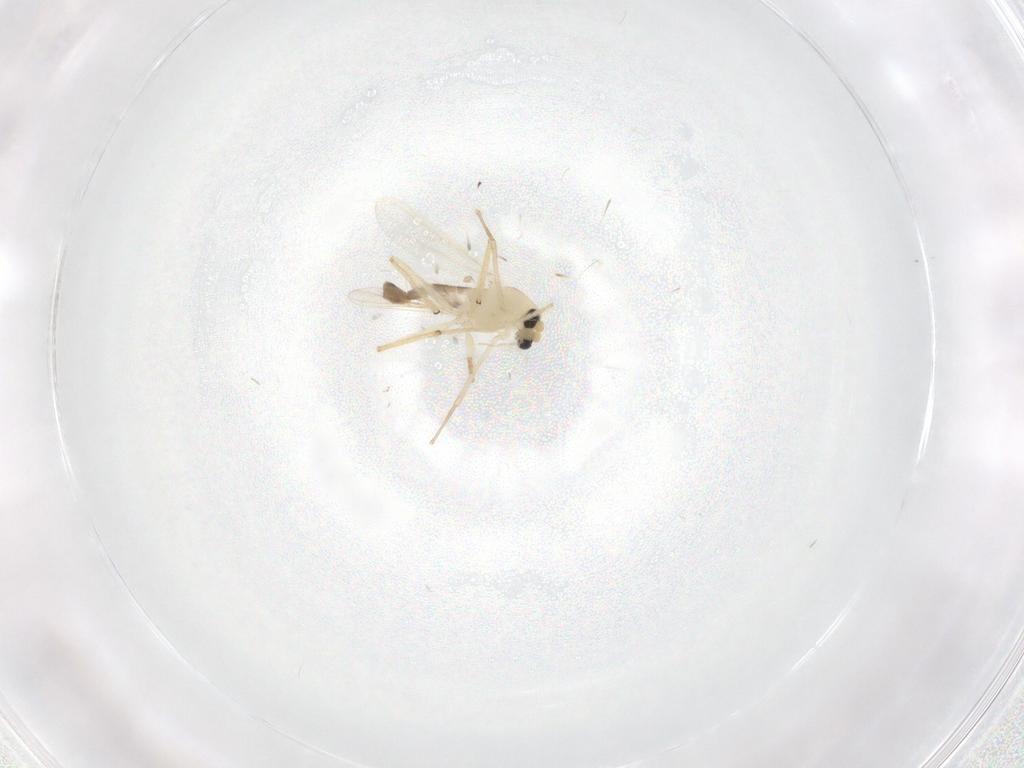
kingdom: Animalia
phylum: Arthropoda
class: Insecta
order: Diptera
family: Chironomidae
